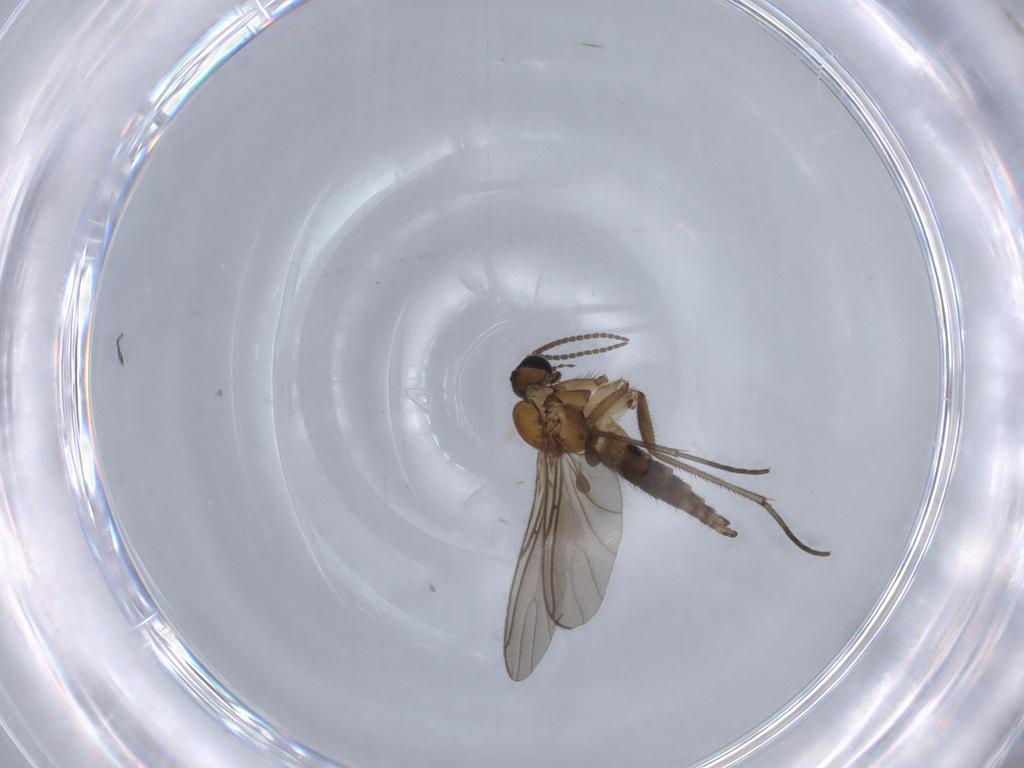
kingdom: Animalia
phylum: Arthropoda
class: Insecta
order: Diptera
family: Sciaridae
